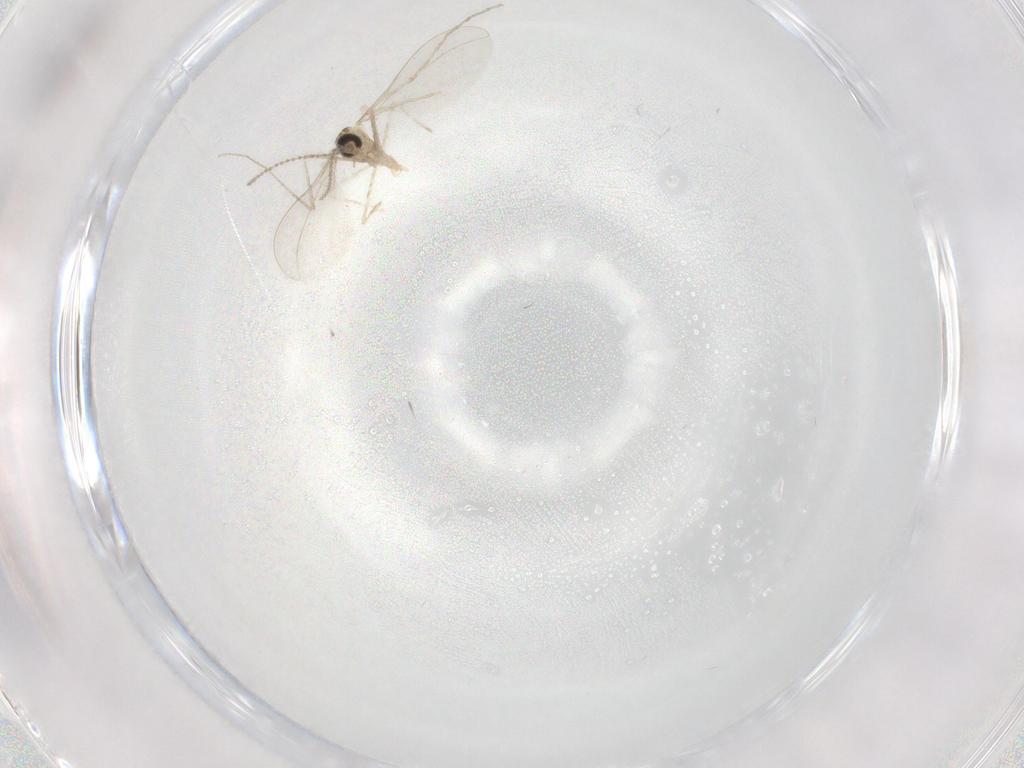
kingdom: Animalia
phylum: Arthropoda
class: Insecta
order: Diptera
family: Cecidomyiidae
